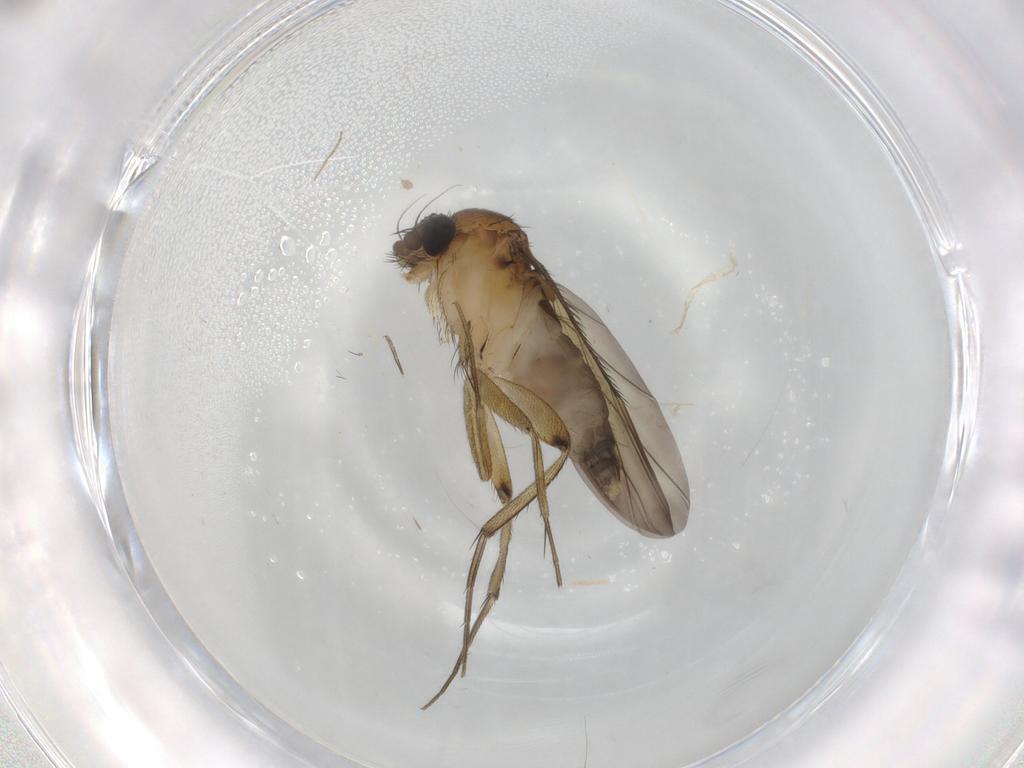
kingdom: Animalia
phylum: Arthropoda
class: Insecta
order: Diptera
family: Phoridae
